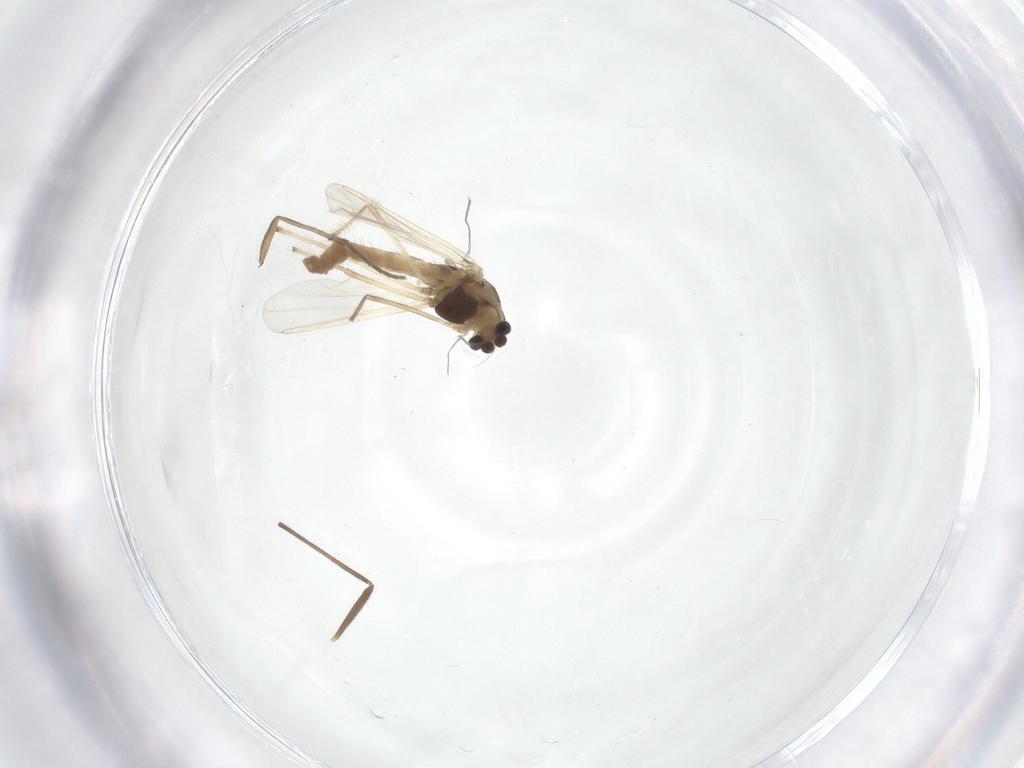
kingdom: Animalia
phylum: Arthropoda
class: Insecta
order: Diptera
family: Chironomidae
